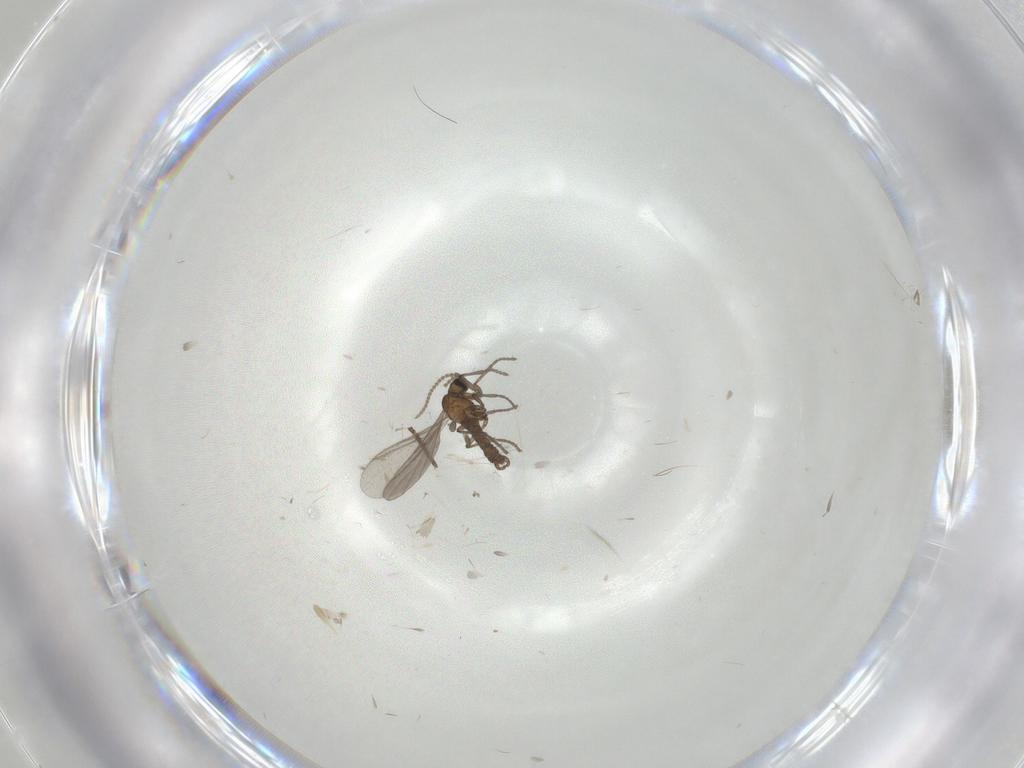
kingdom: Animalia
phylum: Arthropoda
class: Insecta
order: Diptera
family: Sciaridae
